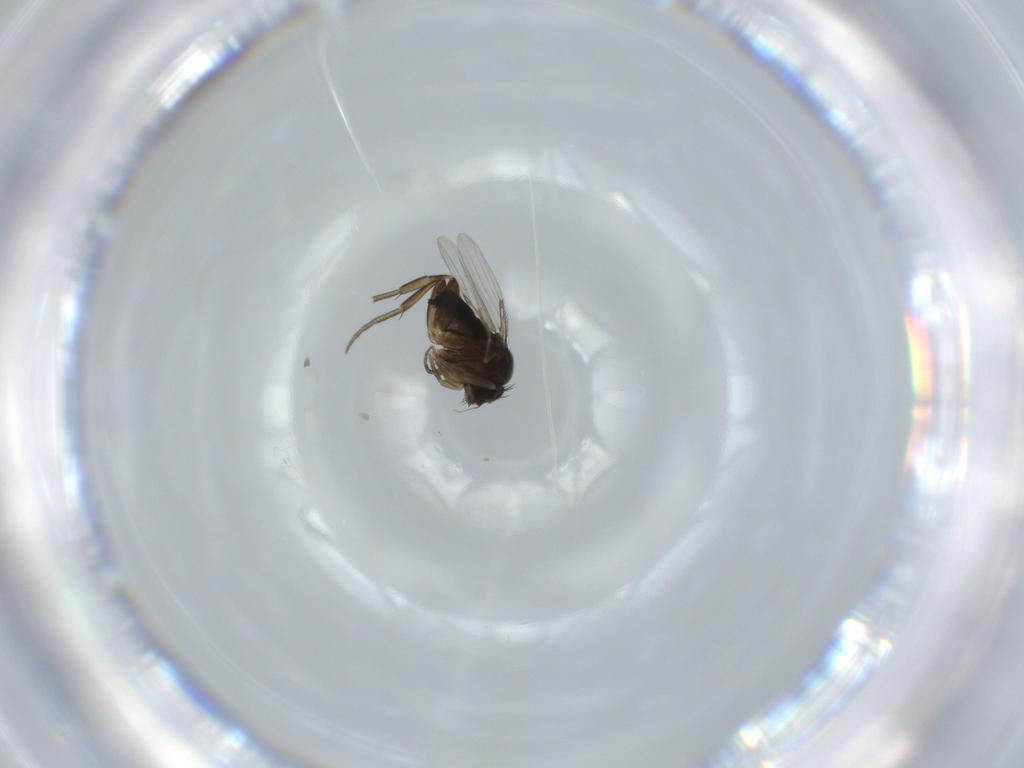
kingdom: Animalia
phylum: Arthropoda
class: Insecta
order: Diptera
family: Phoridae
